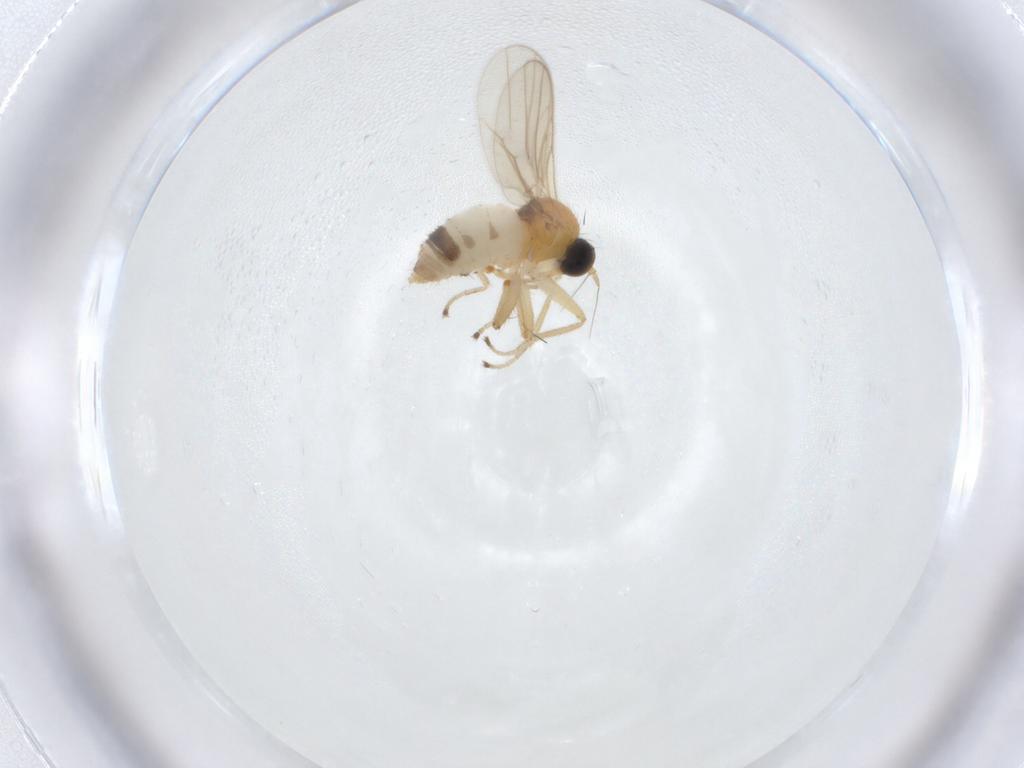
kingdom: Animalia
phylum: Arthropoda
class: Insecta
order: Diptera
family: Hybotidae
